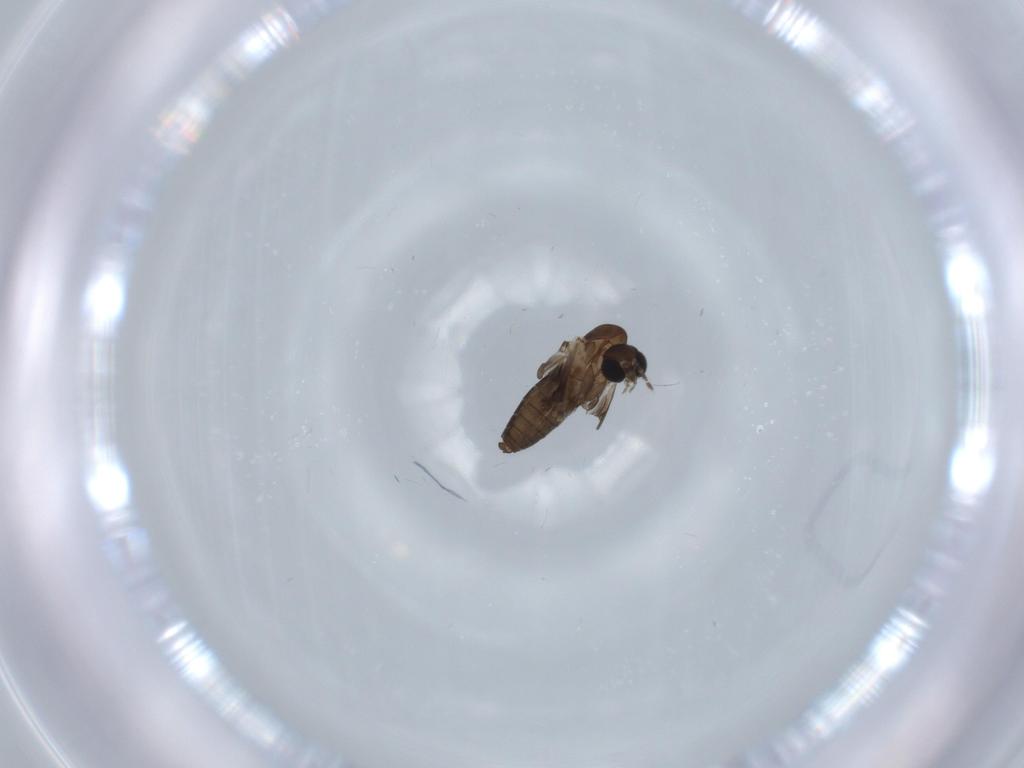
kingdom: Animalia
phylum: Arthropoda
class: Insecta
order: Diptera
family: Psychodidae
